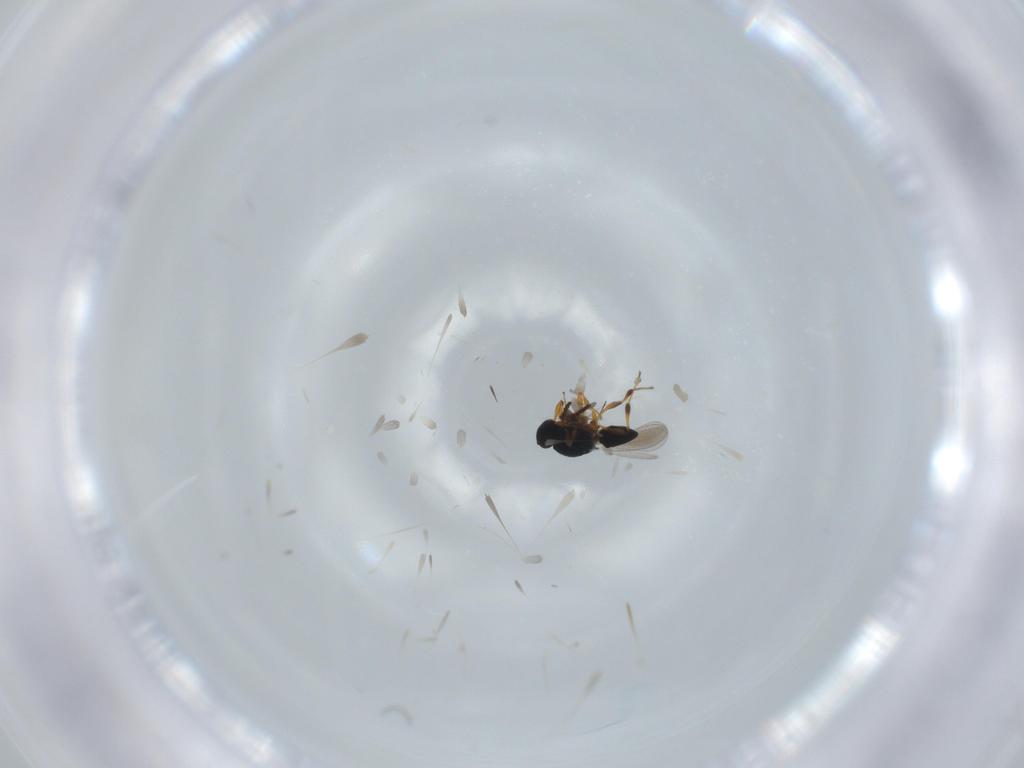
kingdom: Animalia
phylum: Arthropoda
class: Insecta
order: Hymenoptera
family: Platygastridae
